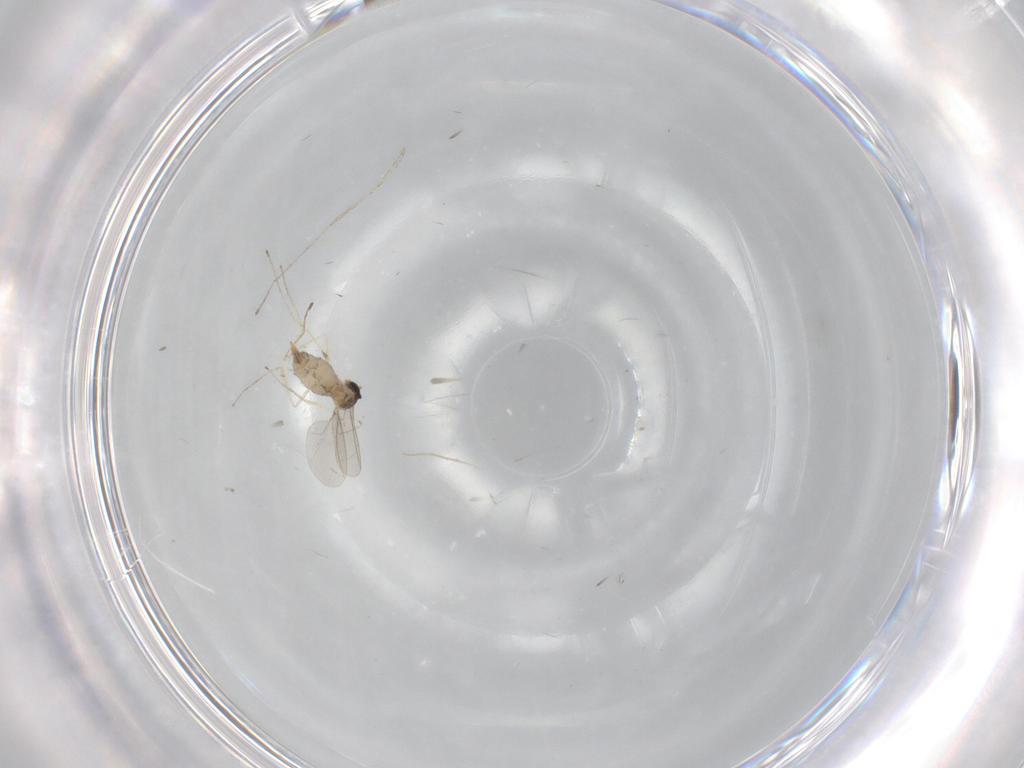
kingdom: Animalia
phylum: Arthropoda
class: Insecta
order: Diptera
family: Cecidomyiidae
